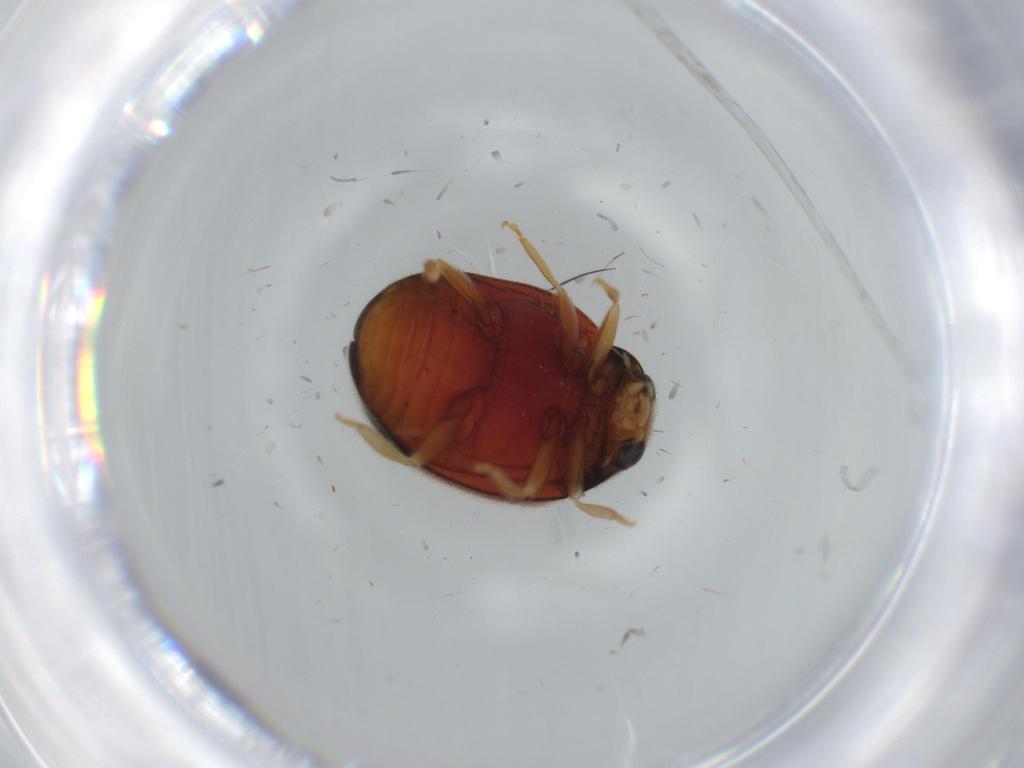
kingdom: Animalia
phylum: Arthropoda
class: Insecta
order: Coleoptera
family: Coccinellidae
